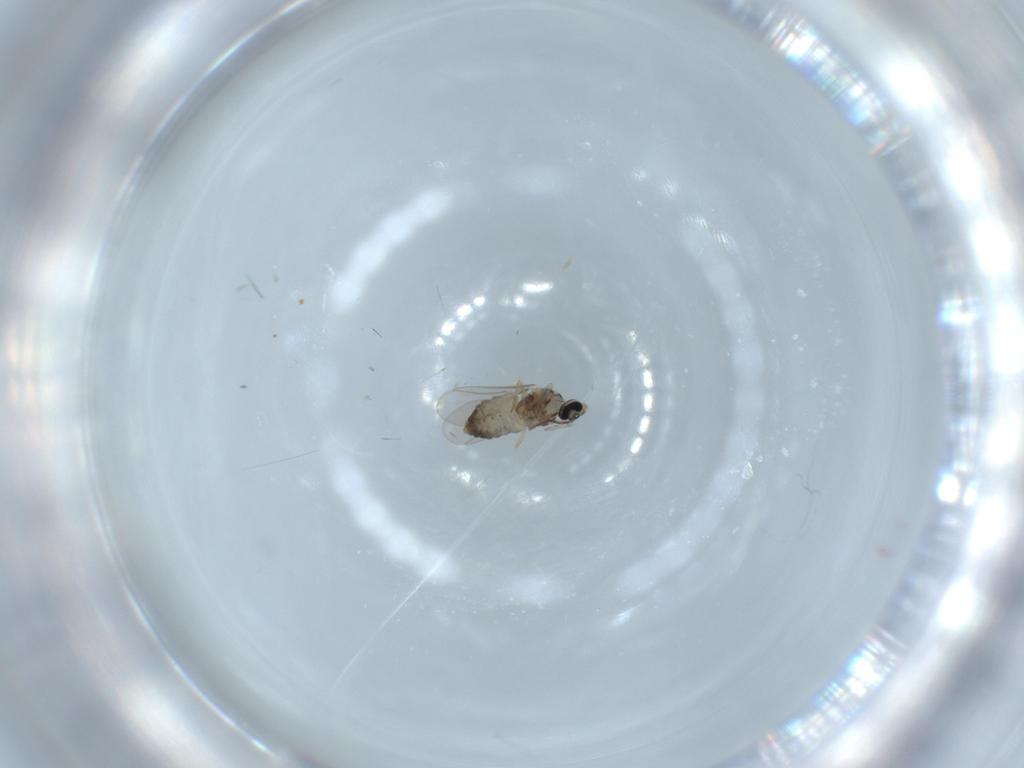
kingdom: Animalia
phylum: Arthropoda
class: Insecta
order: Diptera
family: Cecidomyiidae
